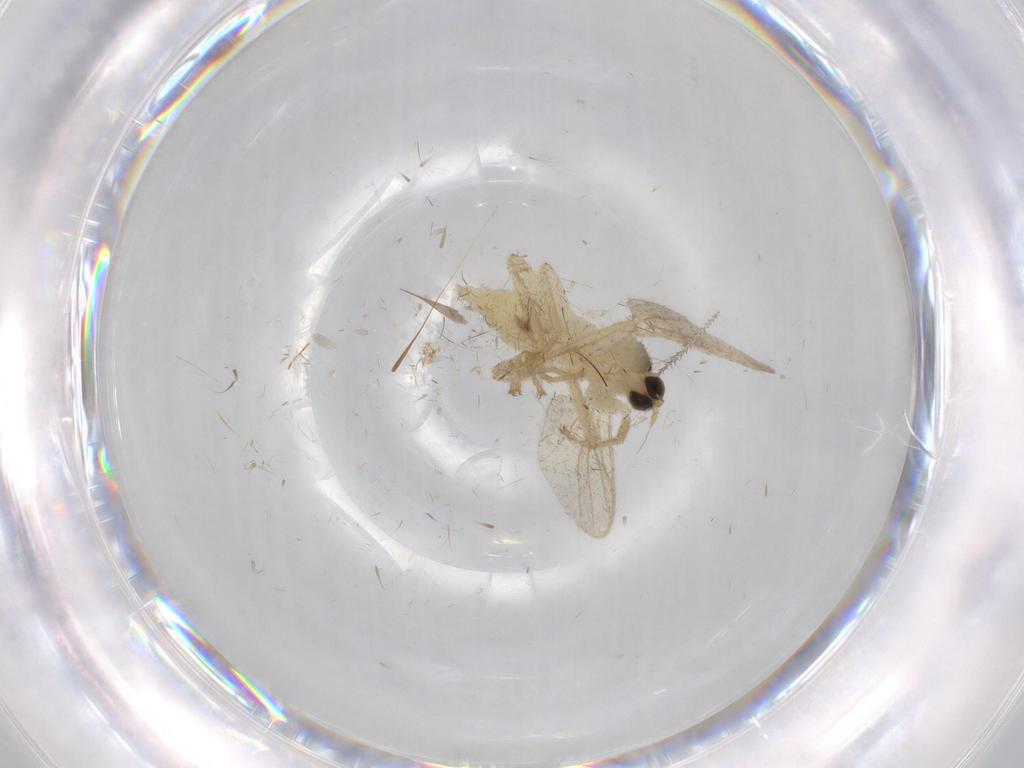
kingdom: Animalia
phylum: Arthropoda
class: Insecta
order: Diptera
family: Hybotidae
